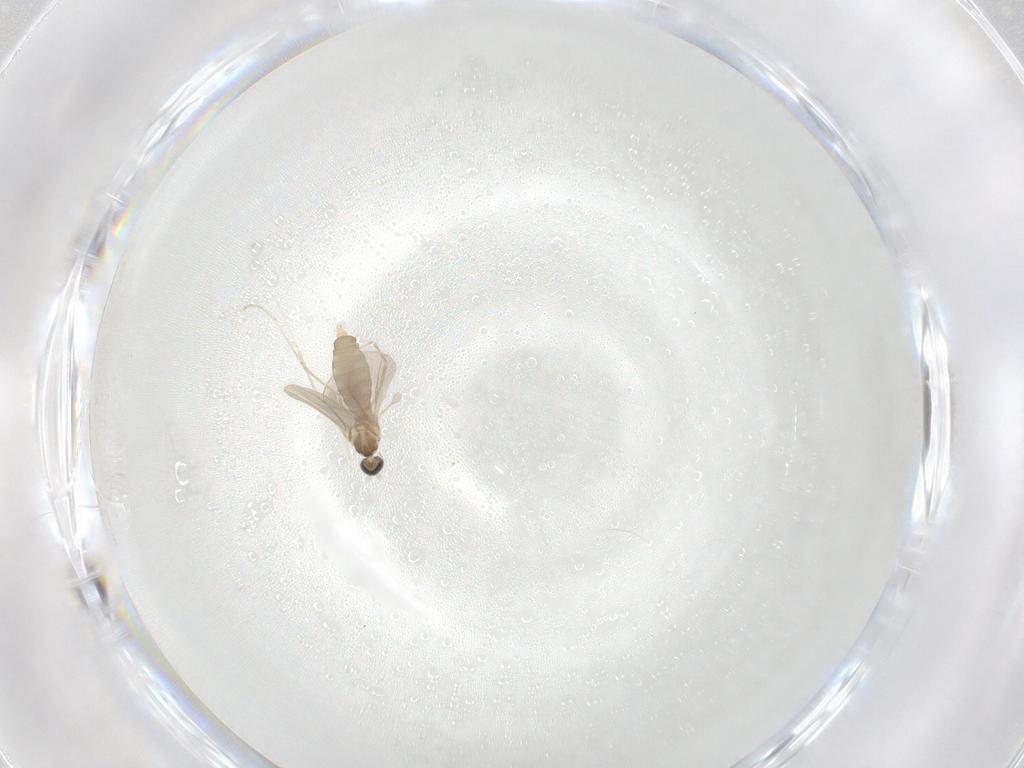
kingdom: Animalia
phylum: Arthropoda
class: Insecta
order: Diptera
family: Cecidomyiidae
